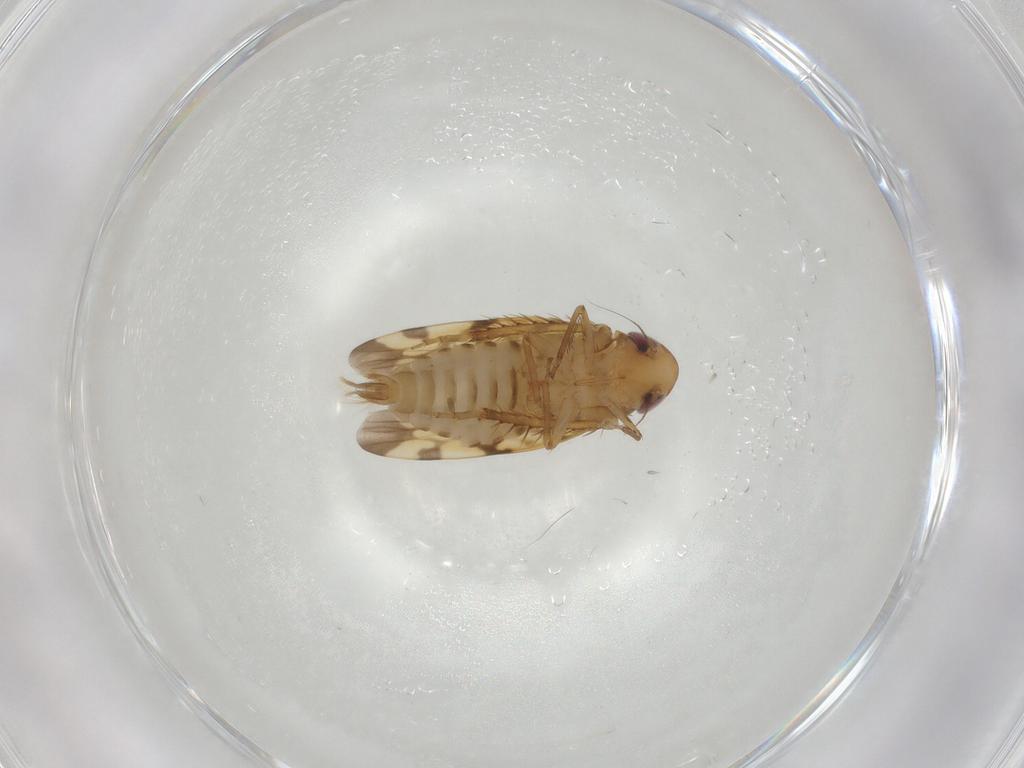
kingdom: Animalia
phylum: Arthropoda
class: Insecta
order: Hemiptera
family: Cicadellidae
